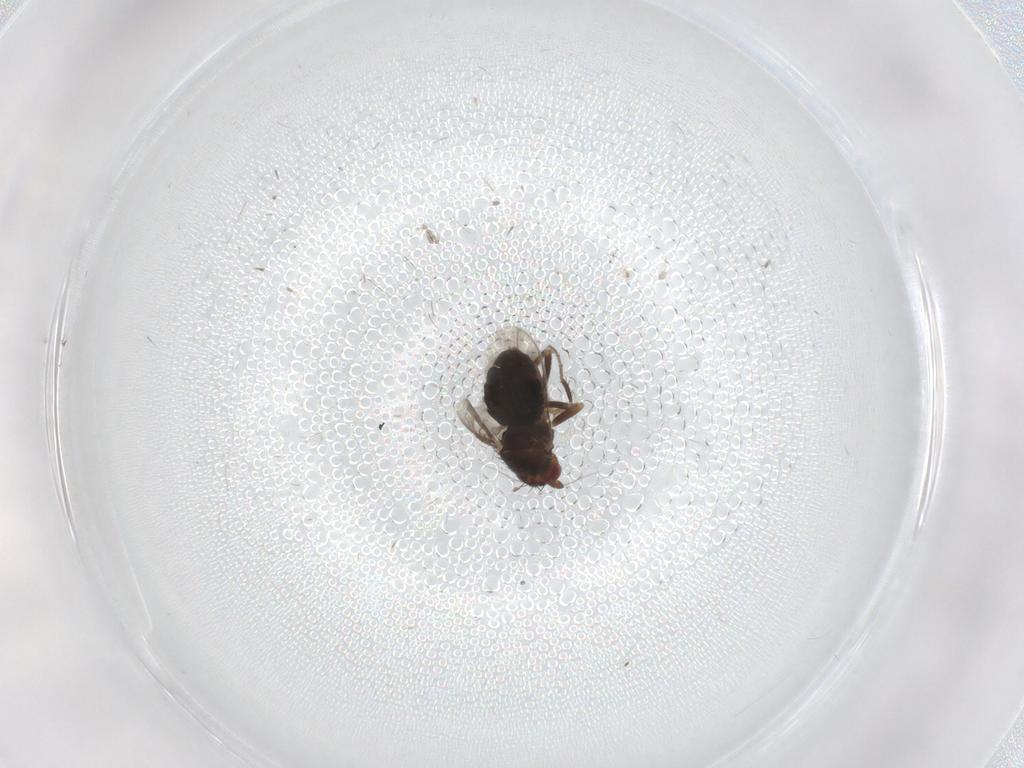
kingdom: Animalia
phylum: Arthropoda
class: Insecta
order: Diptera
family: Sphaeroceridae
